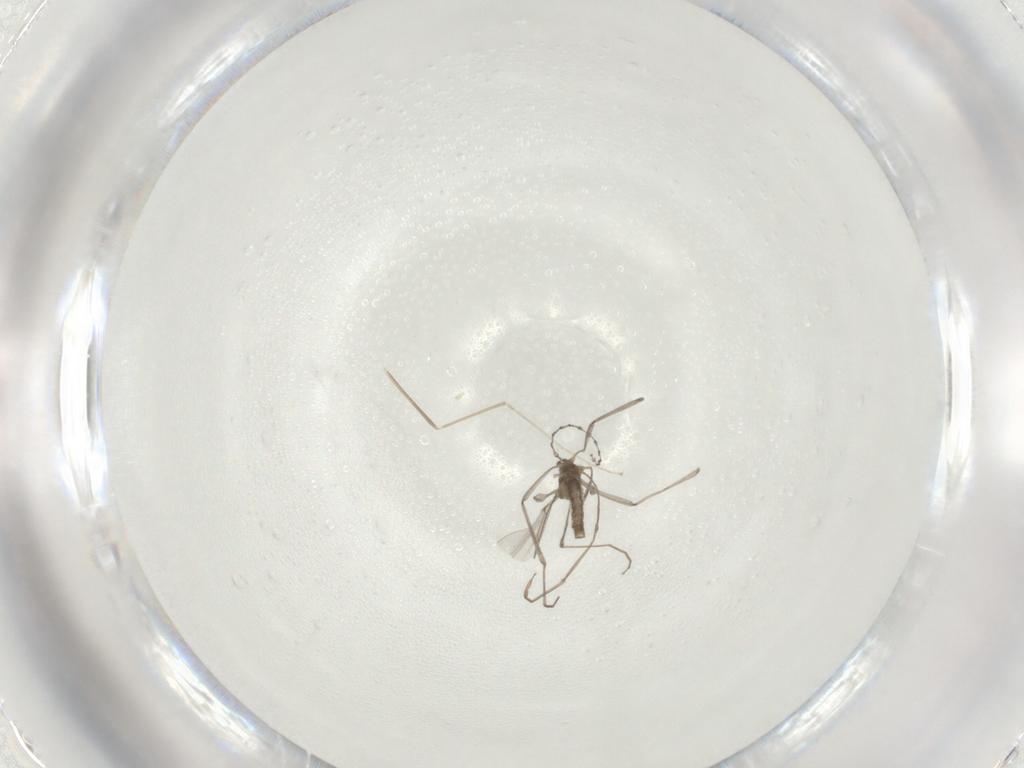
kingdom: Animalia
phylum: Arthropoda
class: Insecta
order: Diptera
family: Cecidomyiidae
